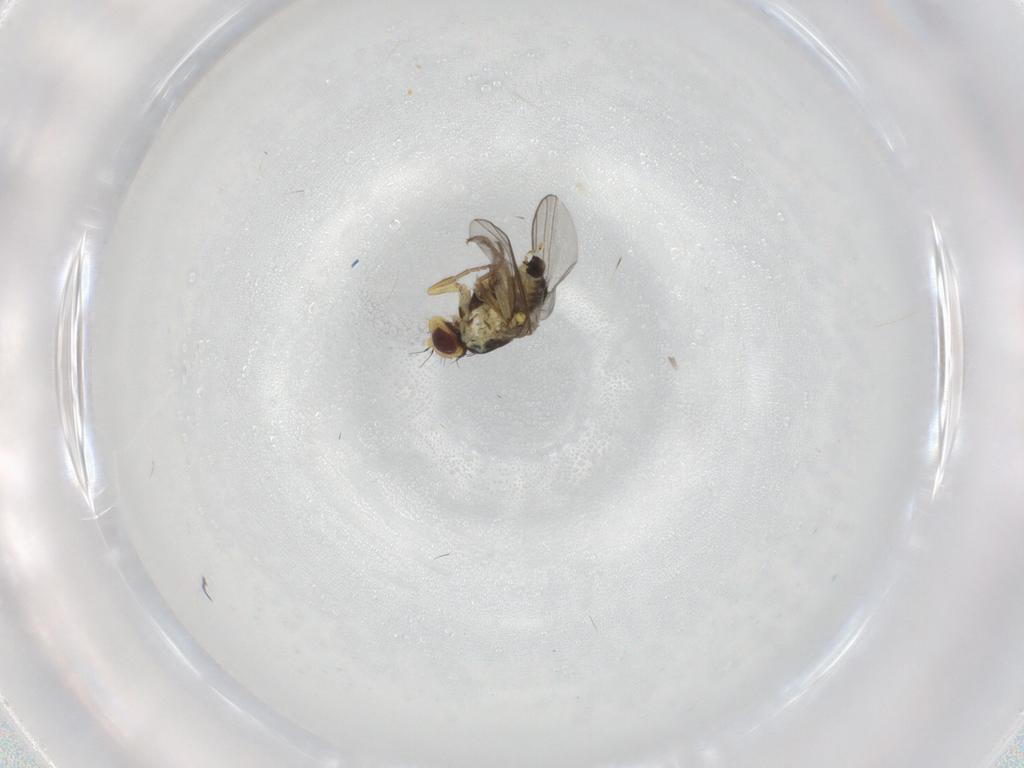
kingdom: Animalia
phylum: Arthropoda
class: Insecta
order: Diptera
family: Agromyzidae
